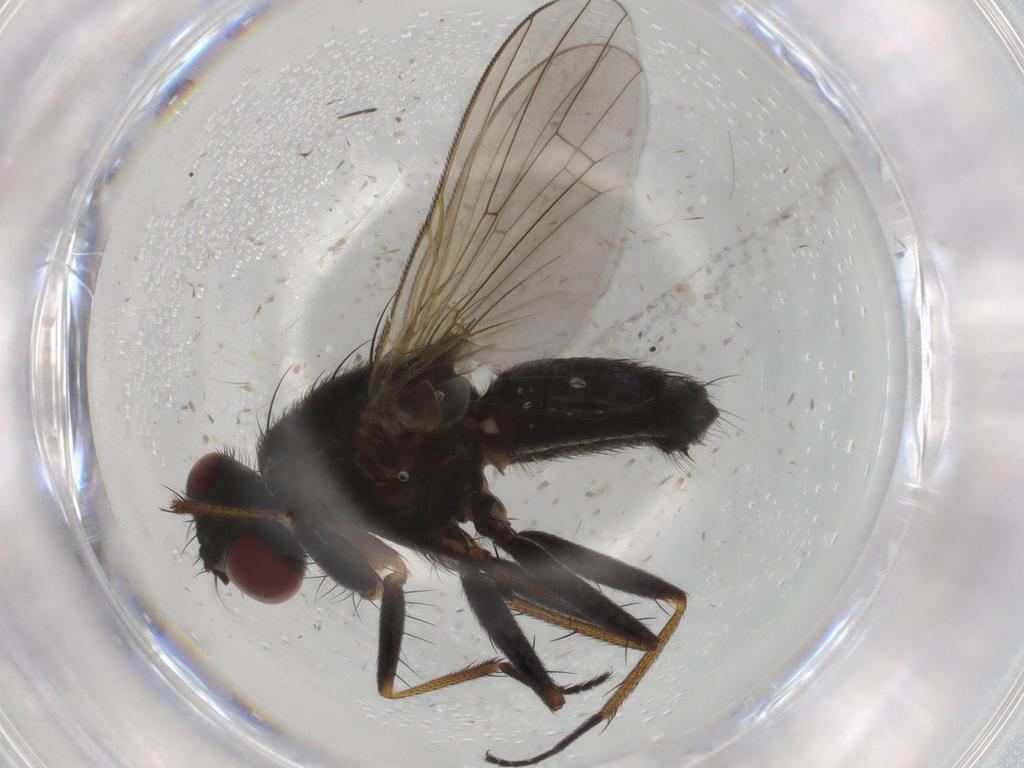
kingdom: Animalia
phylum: Arthropoda
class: Insecta
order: Diptera
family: Muscidae
